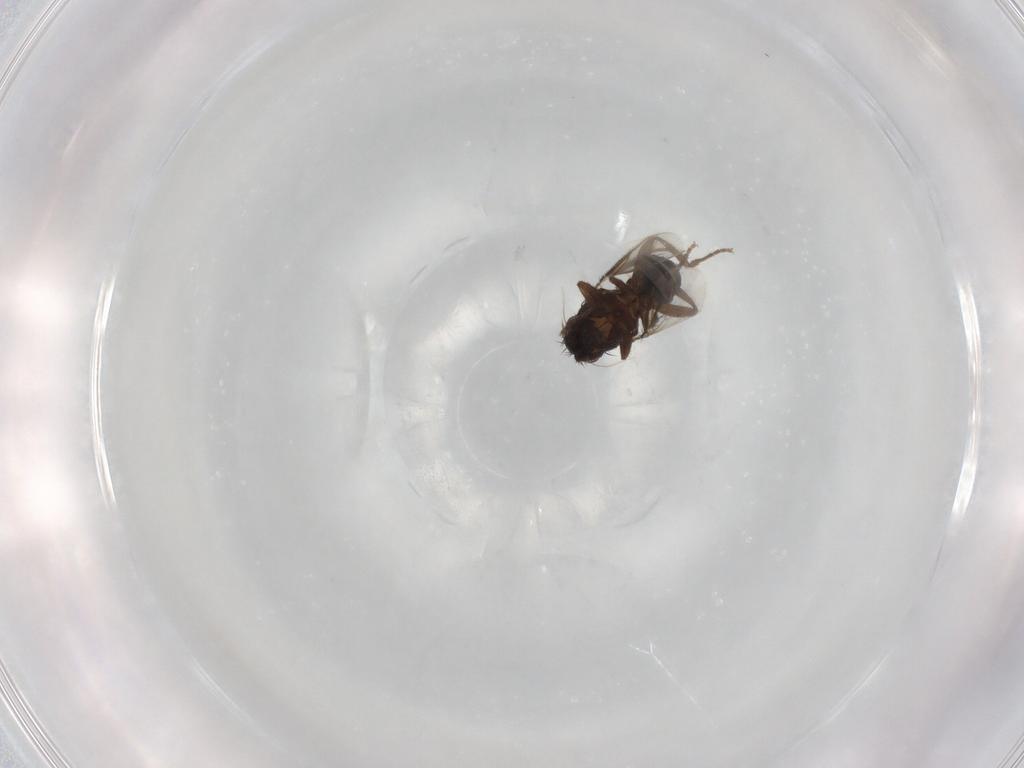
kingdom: Animalia
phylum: Arthropoda
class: Insecta
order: Diptera
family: Sphaeroceridae
